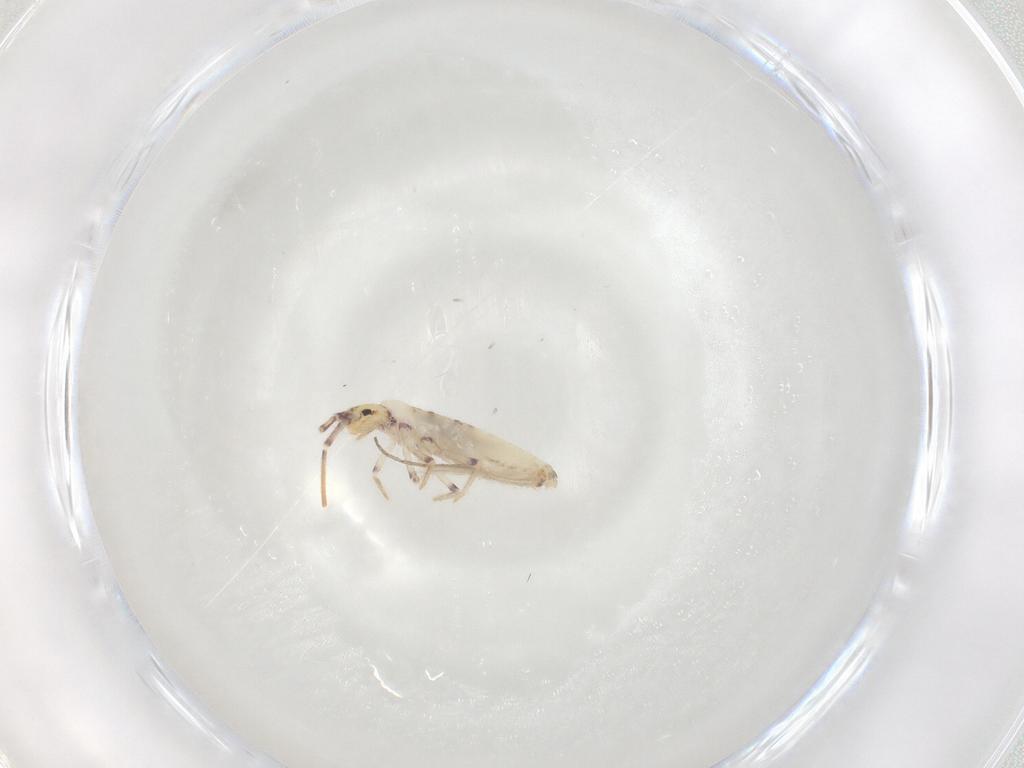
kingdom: Animalia
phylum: Arthropoda
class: Collembola
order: Entomobryomorpha
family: Entomobryidae
